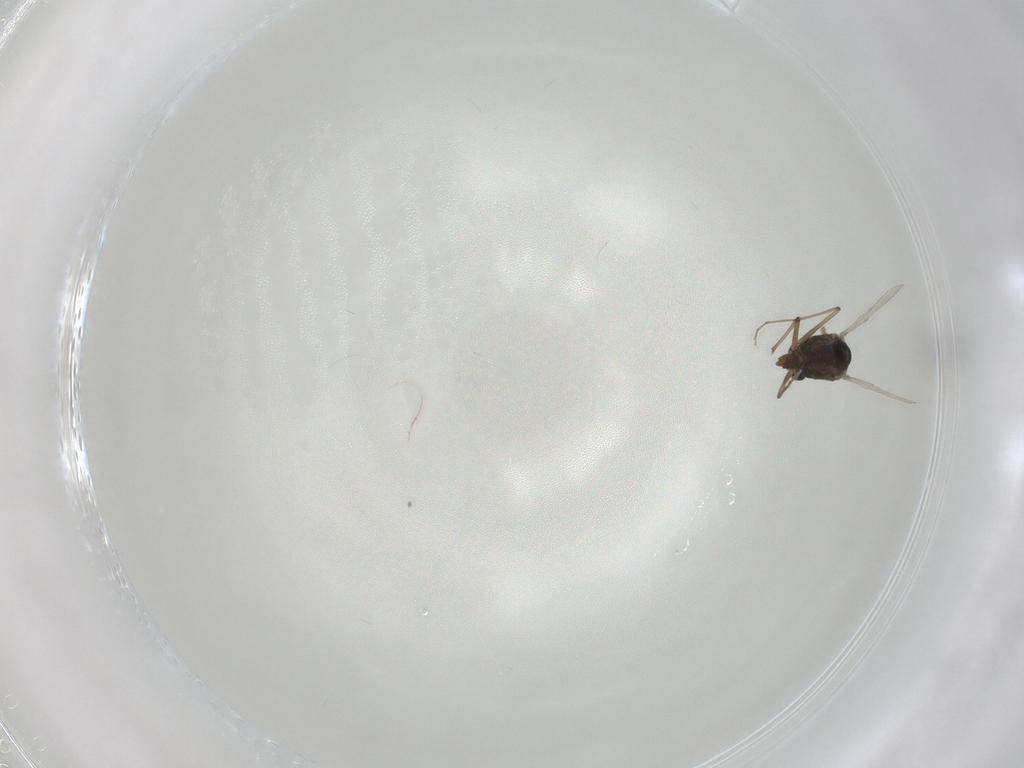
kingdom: Animalia
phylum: Arthropoda
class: Insecta
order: Diptera
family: Chironomidae
